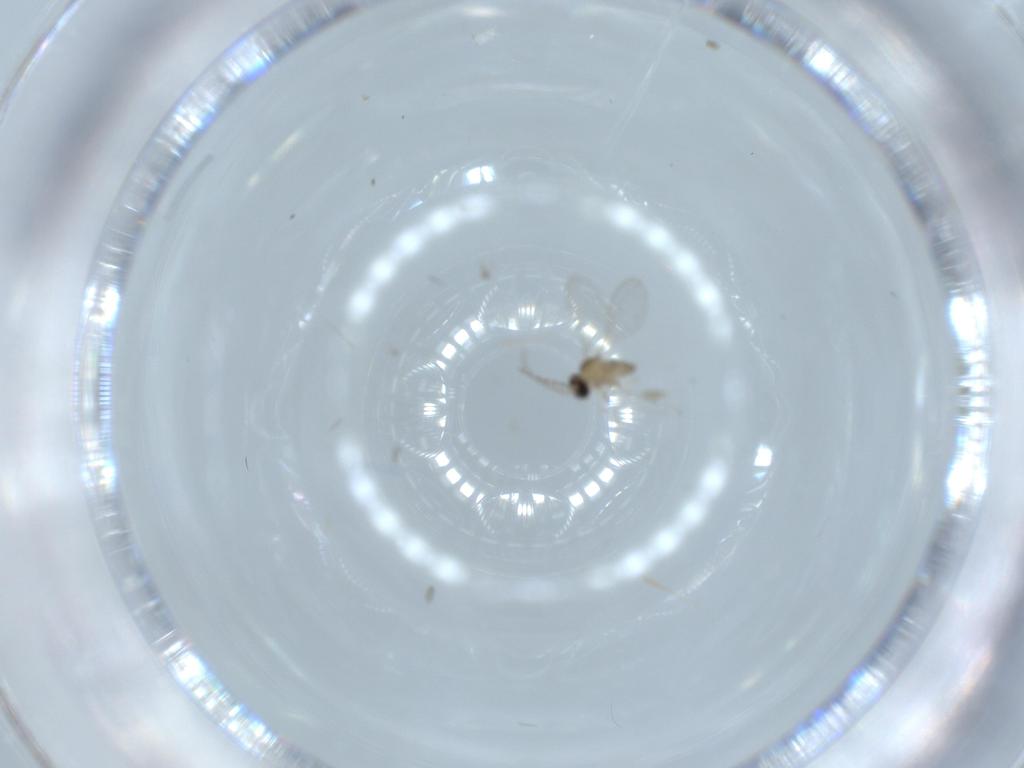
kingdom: Animalia
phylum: Arthropoda
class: Insecta
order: Diptera
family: Cecidomyiidae
